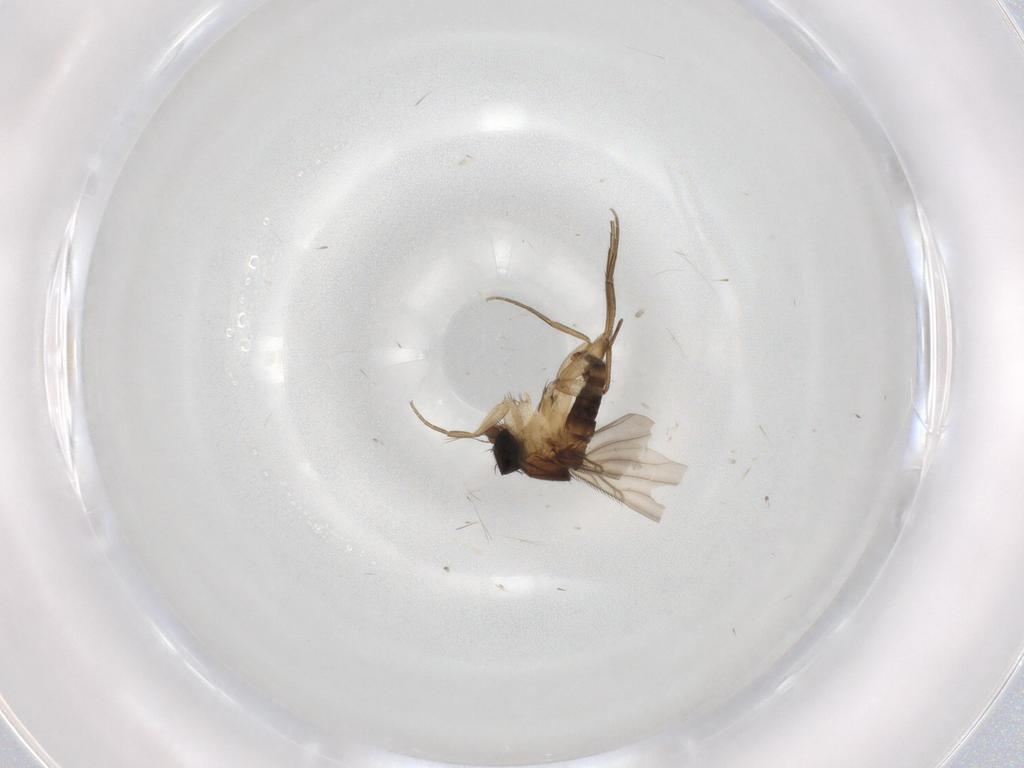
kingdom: Animalia
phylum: Arthropoda
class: Insecta
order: Diptera
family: Phoridae
